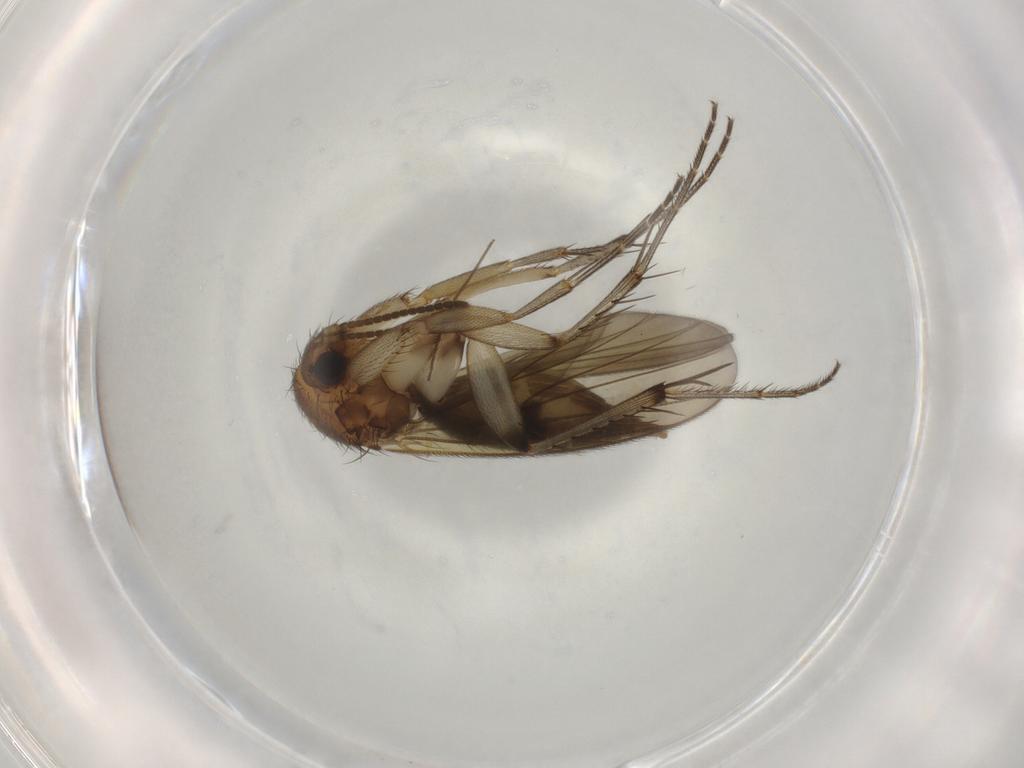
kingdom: Animalia
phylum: Arthropoda
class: Insecta
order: Diptera
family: Mycetophilidae
